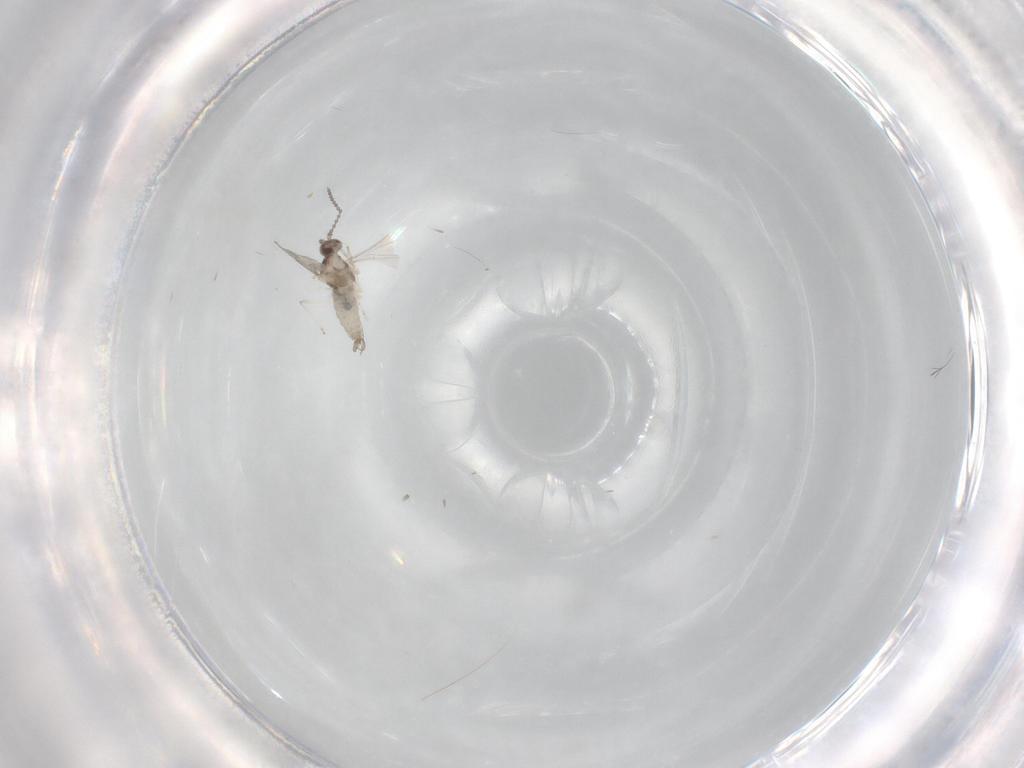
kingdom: Animalia
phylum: Arthropoda
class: Insecta
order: Diptera
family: Cecidomyiidae
